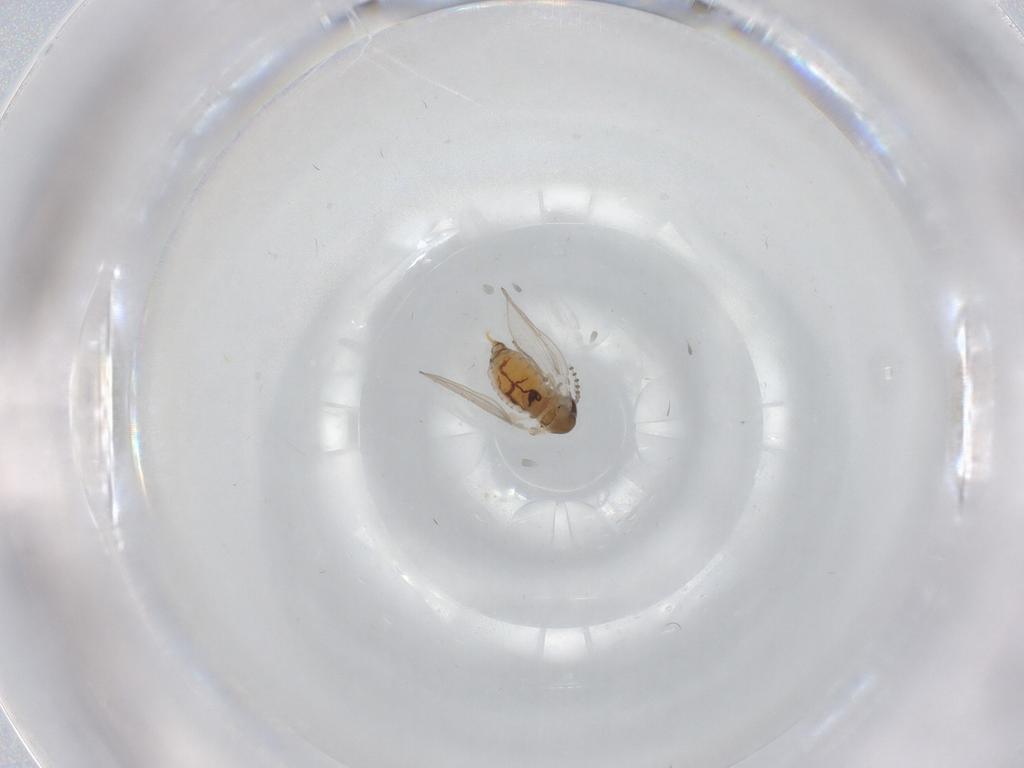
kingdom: Animalia
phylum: Arthropoda
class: Insecta
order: Diptera
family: Psychodidae
